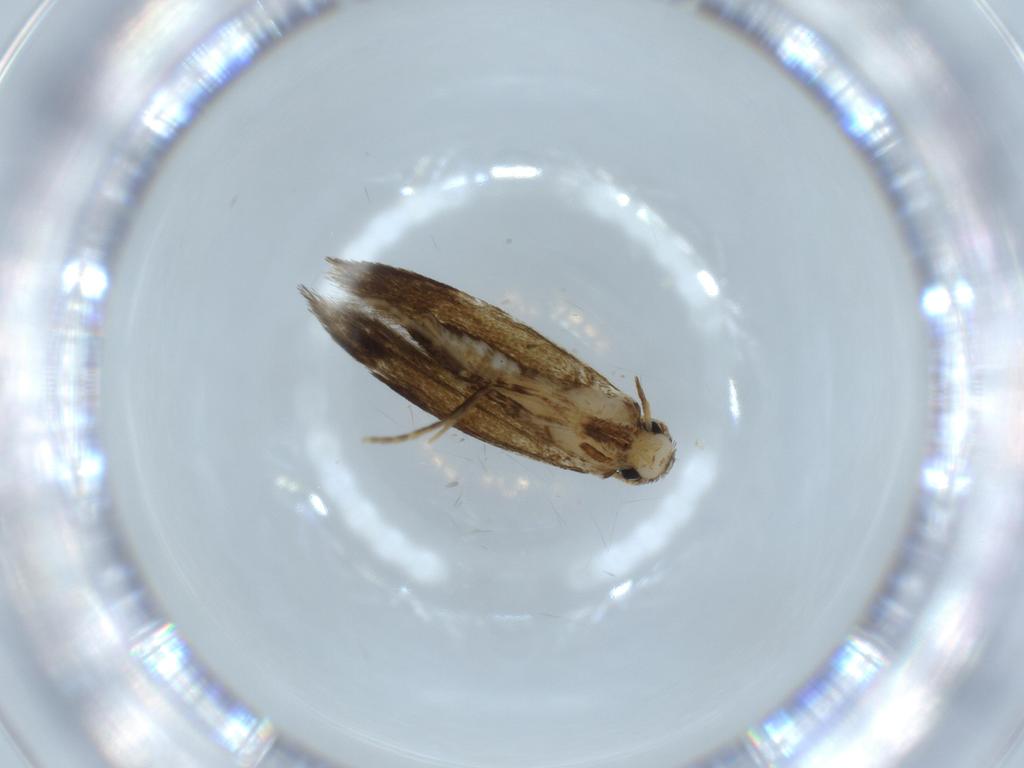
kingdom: Animalia
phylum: Arthropoda
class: Insecta
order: Lepidoptera
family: Tineidae
